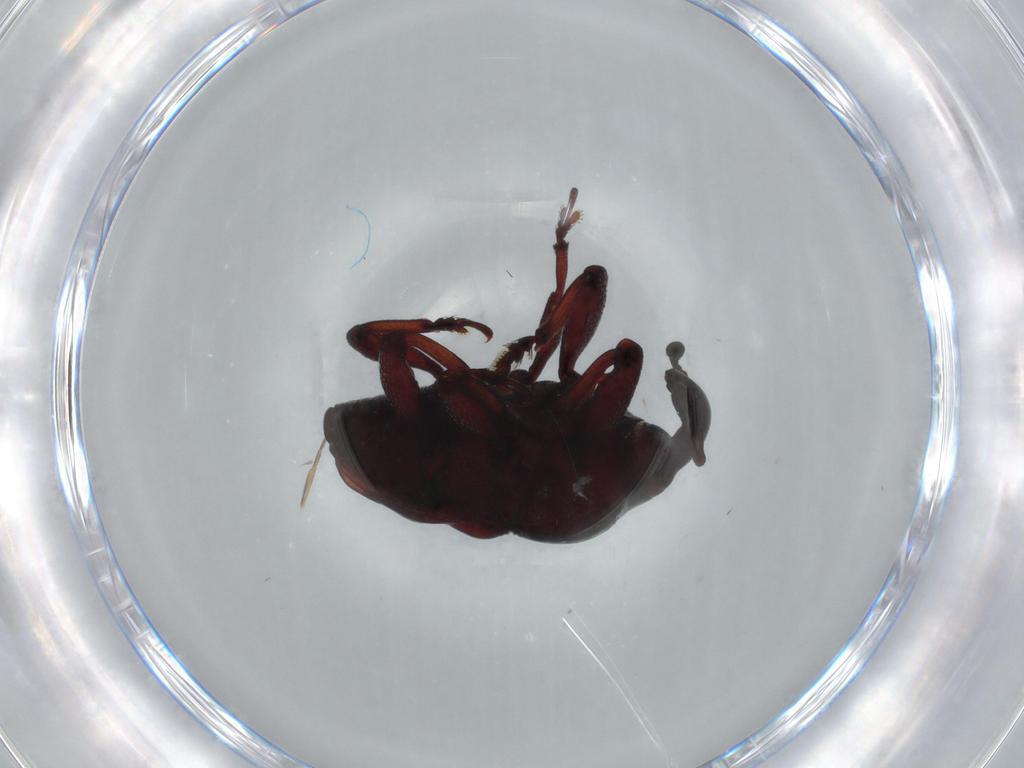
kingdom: Animalia
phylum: Arthropoda
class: Insecta
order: Coleoptera
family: Curculionidae
